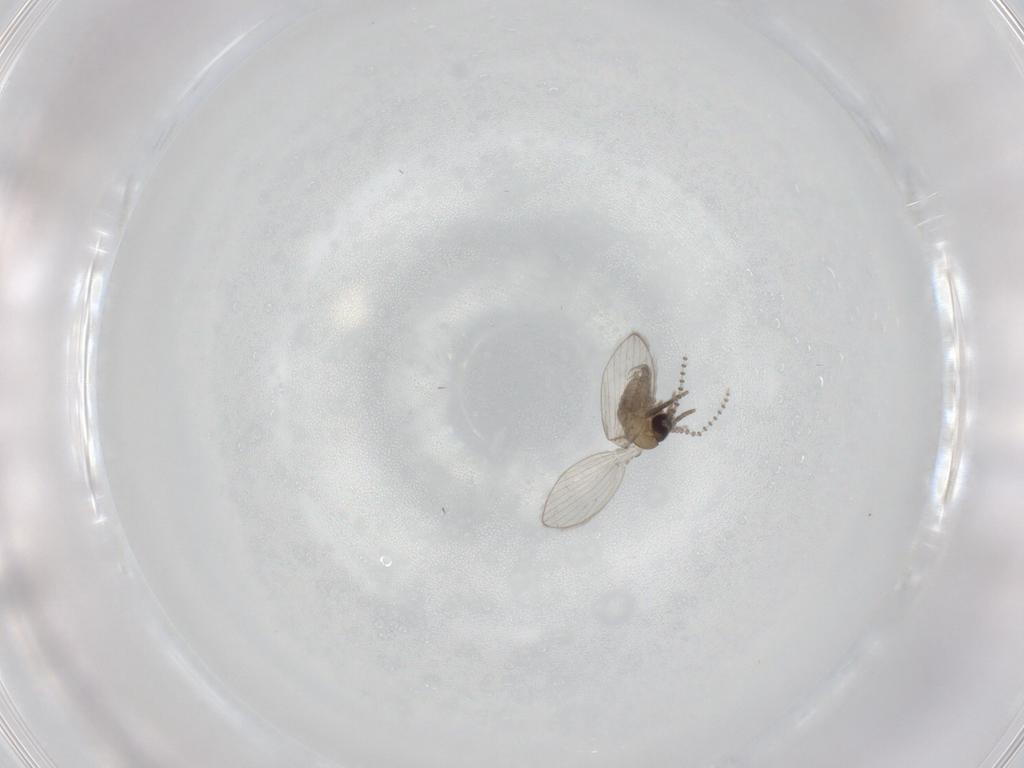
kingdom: Animalia
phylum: Arthropoda
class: Insecta
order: Diptera
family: Psychodidae
